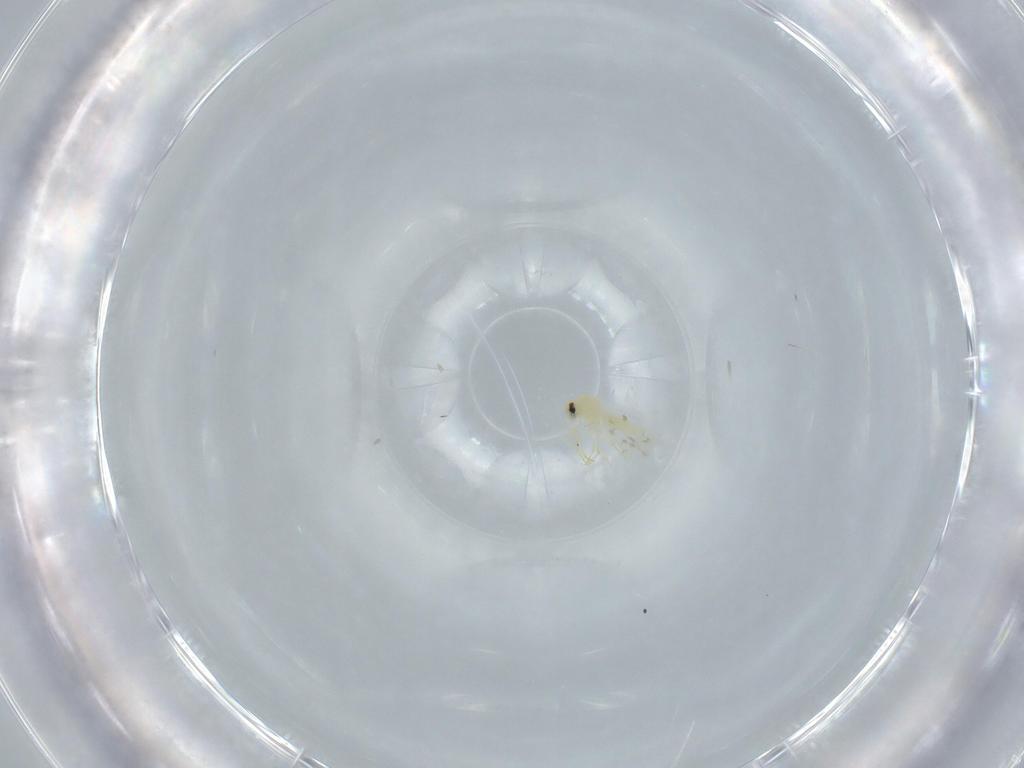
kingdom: Animalia
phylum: Arthropoda
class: Insecta
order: Hemiptera
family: Aleyrodidae
